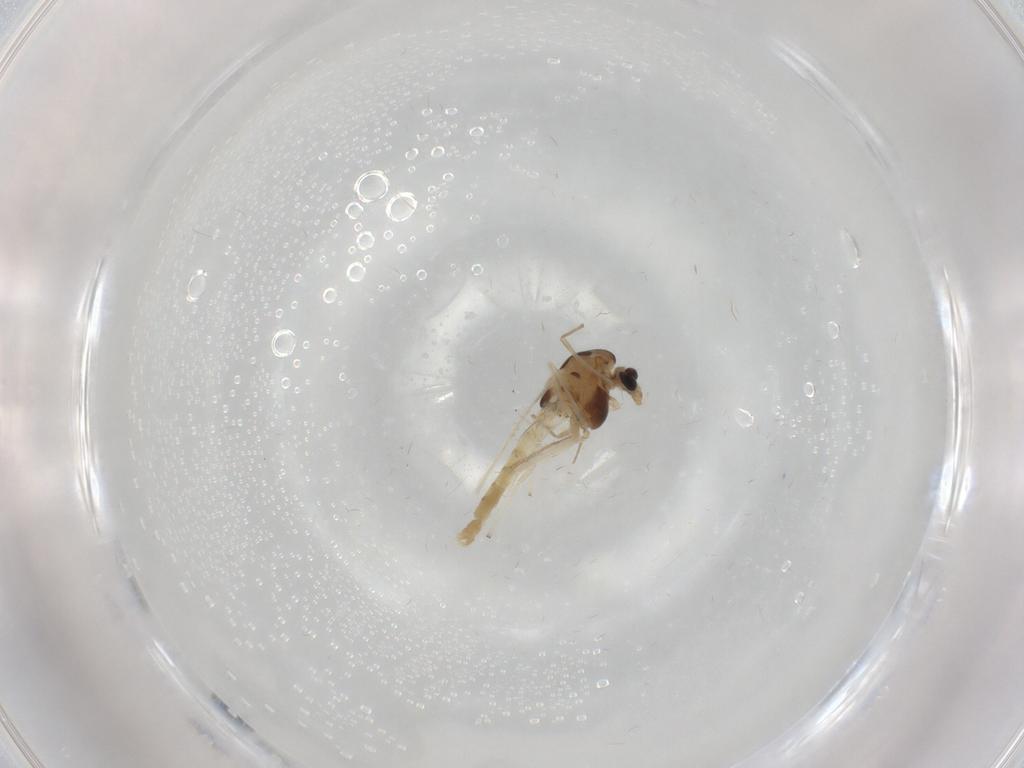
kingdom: Animalia
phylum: Arthropoda
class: Insecta
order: Diptera
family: Chironomidae
